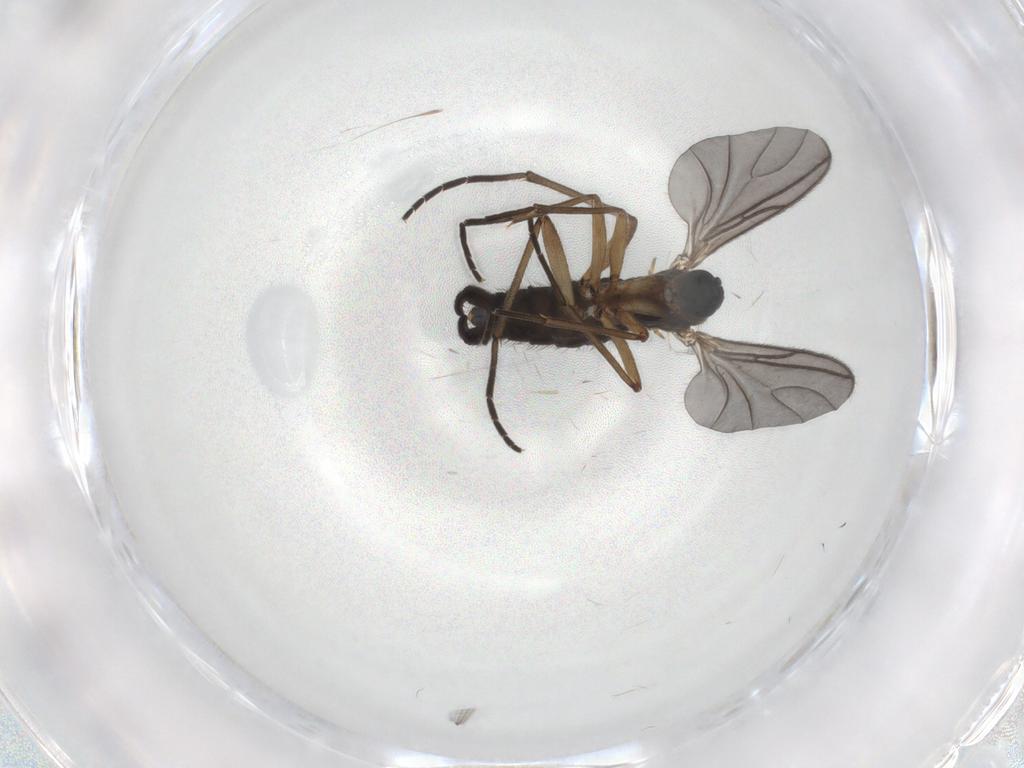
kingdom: Animalia
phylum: Arthropoda
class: Insecta
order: Diptera
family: Sciaridae
